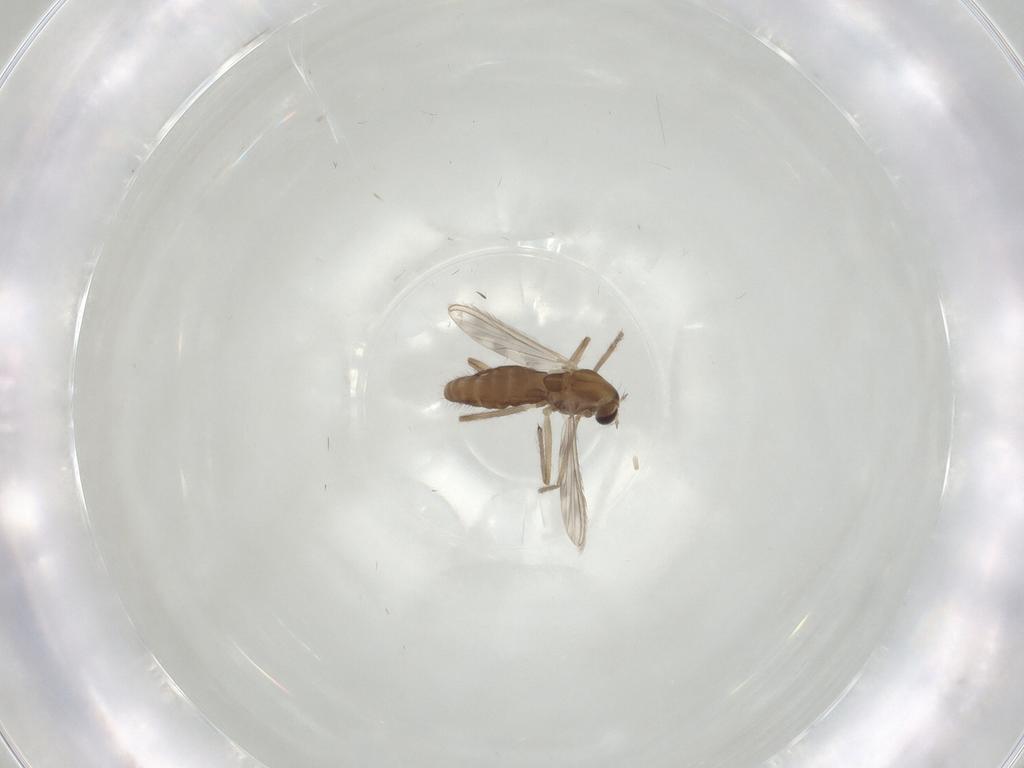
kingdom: Animalia
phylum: Arthropoda
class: Insecta
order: Diptera
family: Chironomidae
